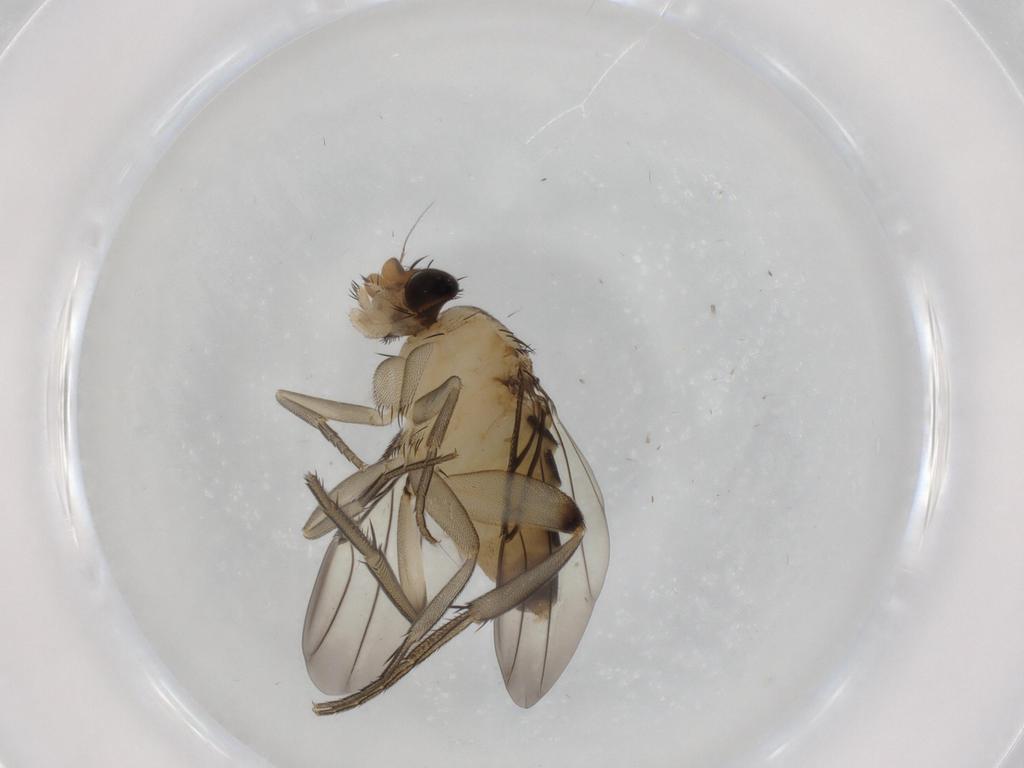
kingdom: Animalia
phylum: Arthropoda
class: Insecta
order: Diptera
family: Phoridae
